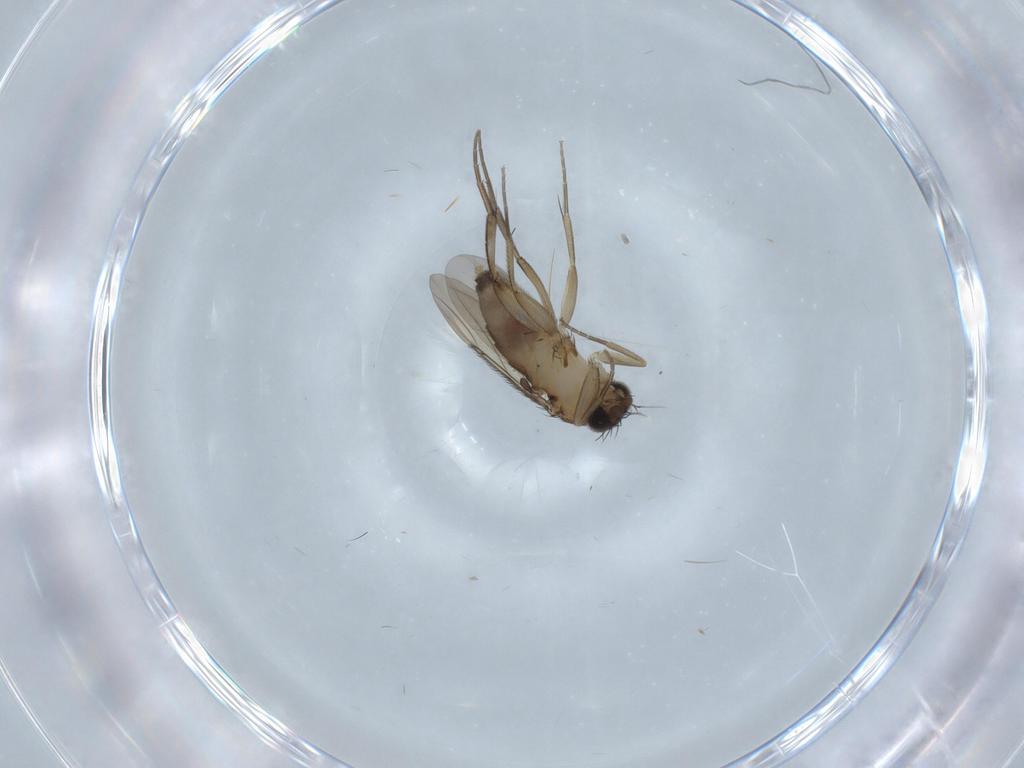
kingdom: Animalia
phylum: Arthropoda
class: Insecta
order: Diptera
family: Phoridae
